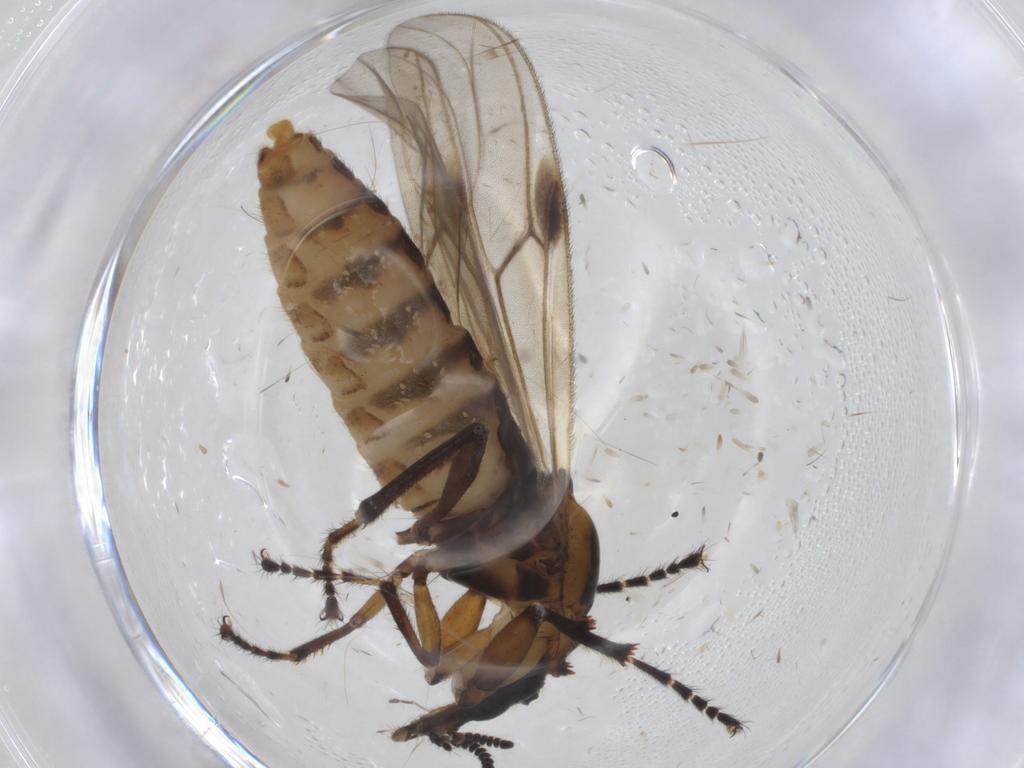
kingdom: Animalia
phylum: Arthropoda
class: Insecta
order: Diptera
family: Bibionidae
